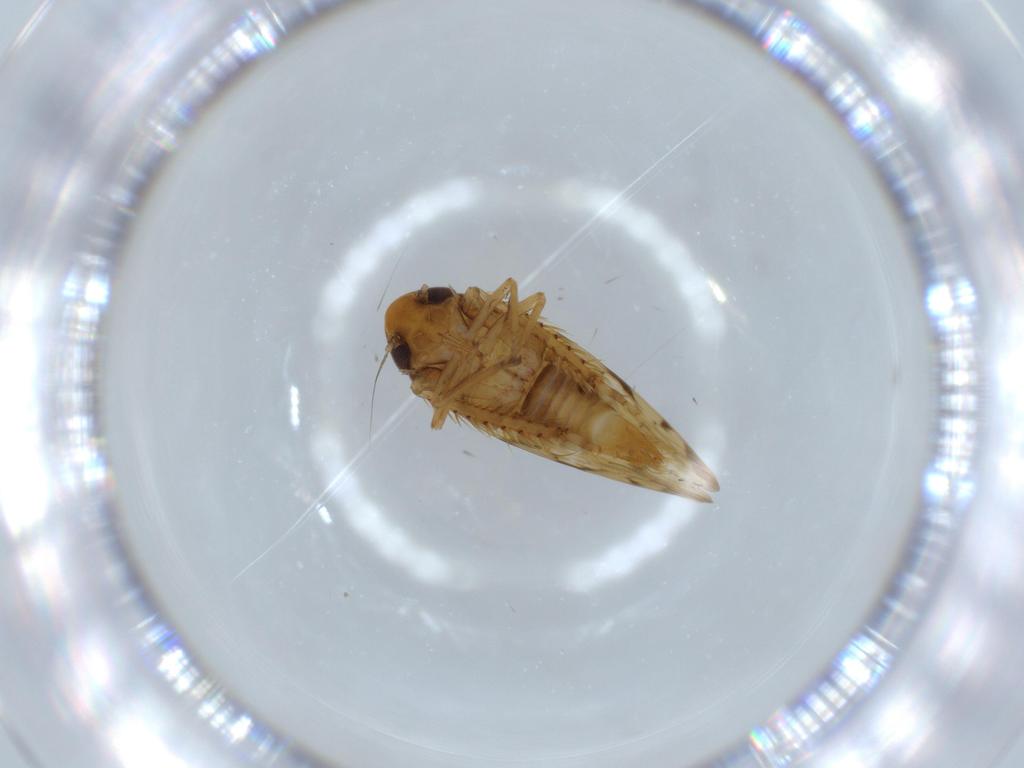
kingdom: Animalia
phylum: Arthropoda
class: Insecta
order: Hemiptera
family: Cicadellidae
